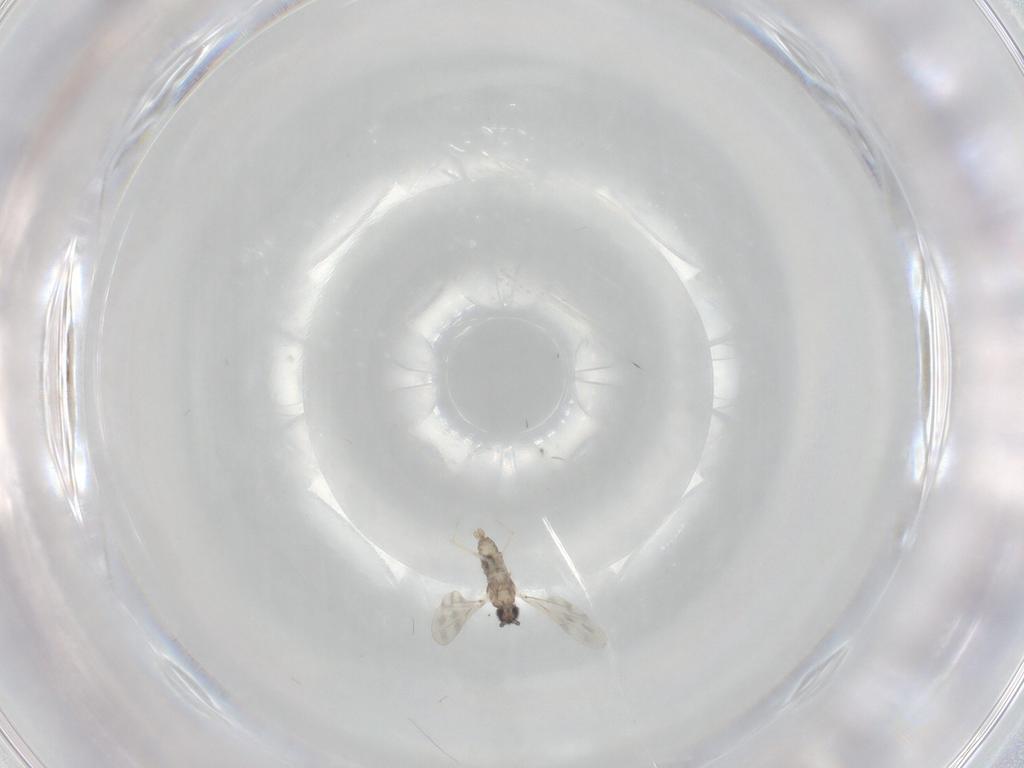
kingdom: Animalia
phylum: Arthropoda
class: Insecta
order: Diptera
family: Cecidomyiidae
